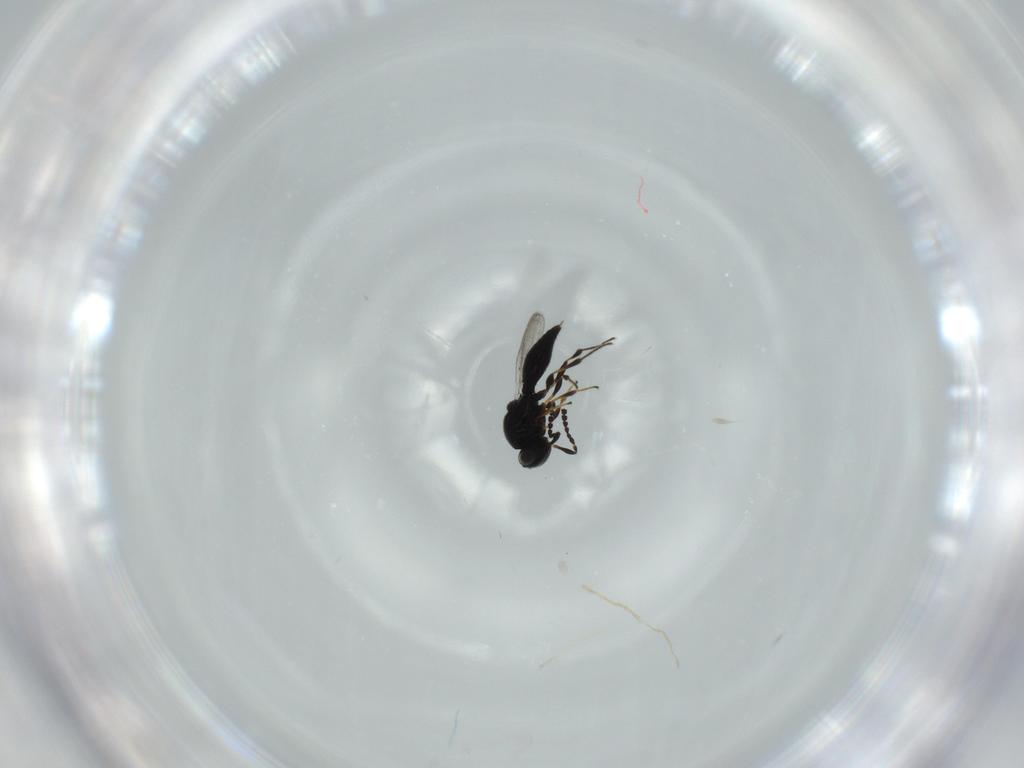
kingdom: Animalia
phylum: Arthropoda
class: Insecta
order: Hymenoptera
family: Platygastridae
